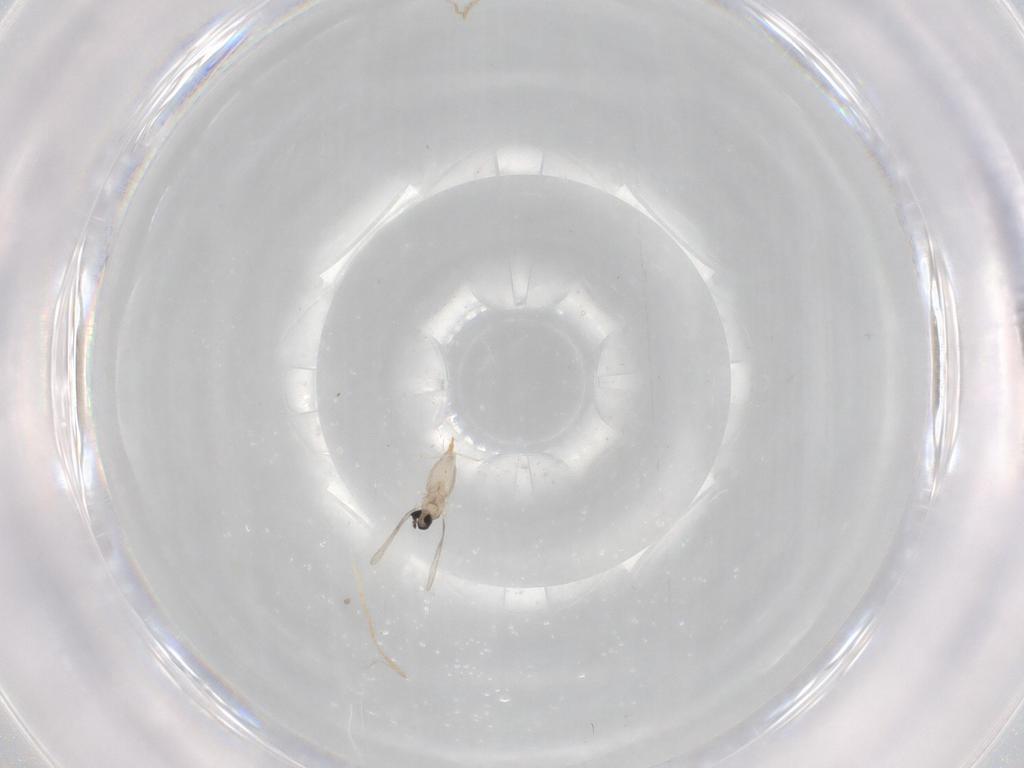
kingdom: Animalia
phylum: Arthropoda
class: Insecta
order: Diptera
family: Cecidomyiidae
